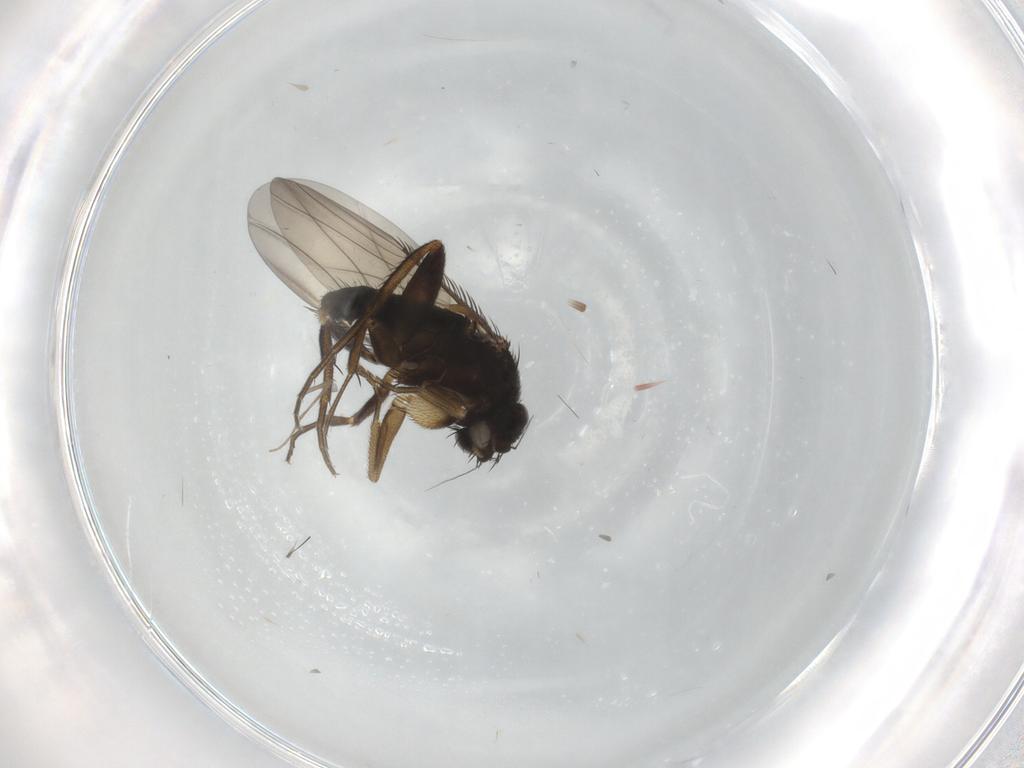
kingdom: Animalia
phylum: Arthropoda
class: Insecta
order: Diptera
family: Phoridae
